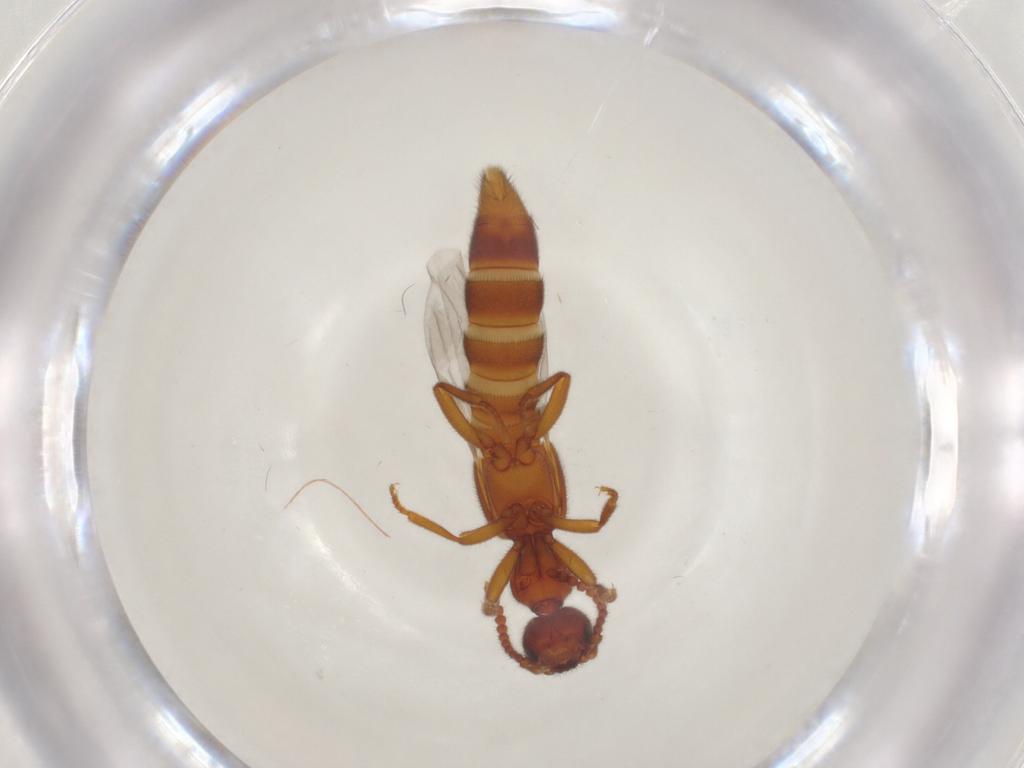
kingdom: Animalia
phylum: Arthropoda
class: Insecta
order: Coleoptera
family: Staphylinidae
